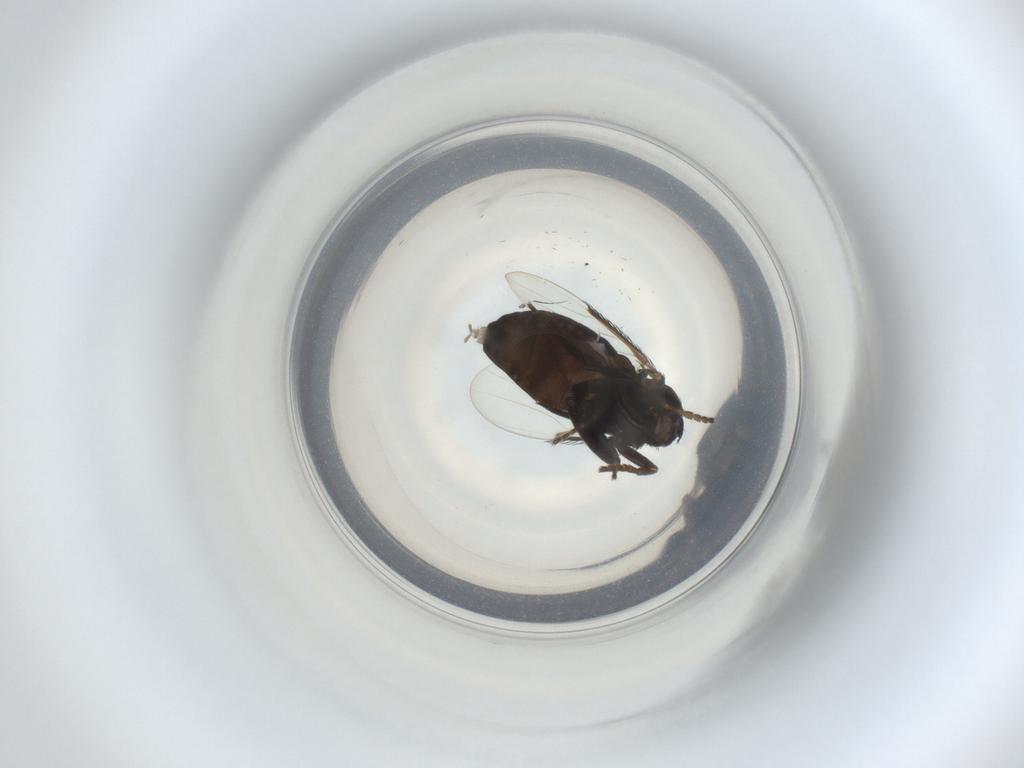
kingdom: Animalia
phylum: Arthropoda
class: Insecta
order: Diptera
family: Phoridae
